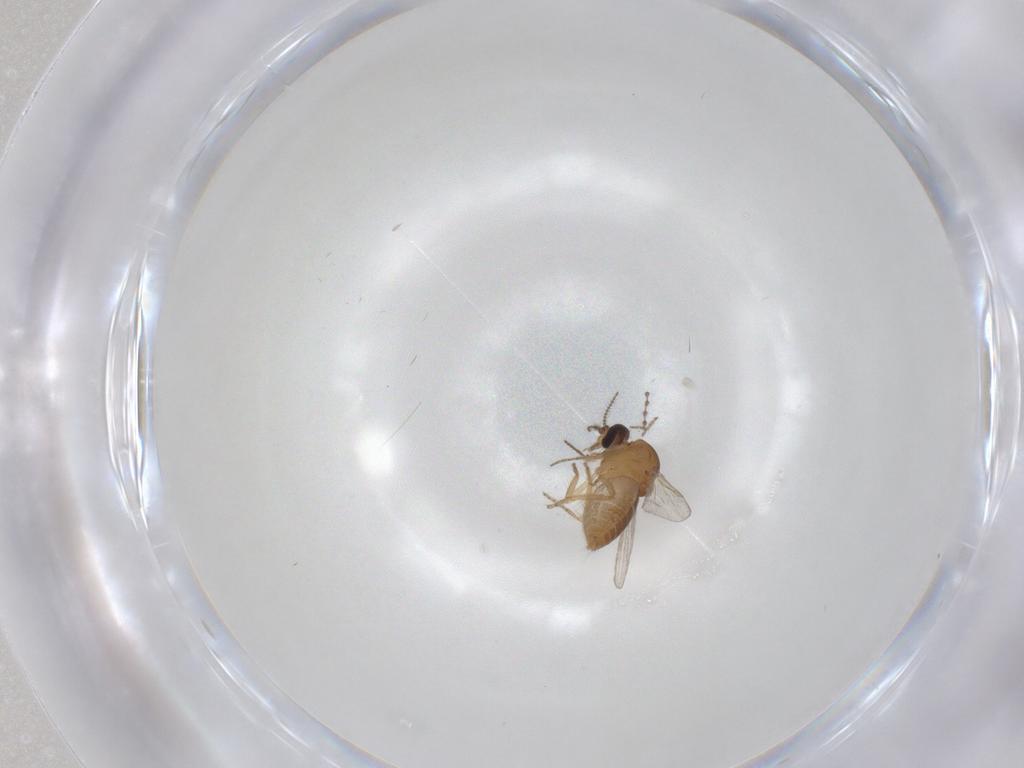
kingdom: Animalia
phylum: Arthropoda
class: Insecta
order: Diptera
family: Ceratopogonidae
